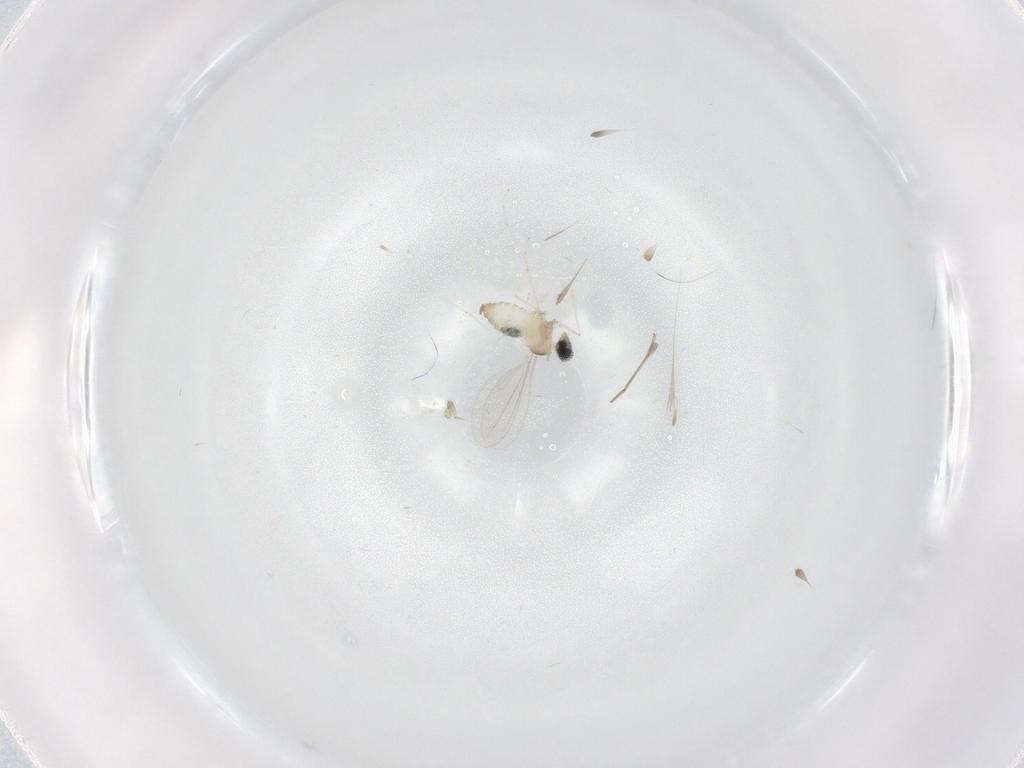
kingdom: Animalia
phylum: Arthropoda
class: Insecta
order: Diptera
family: Cecidomyiidae
